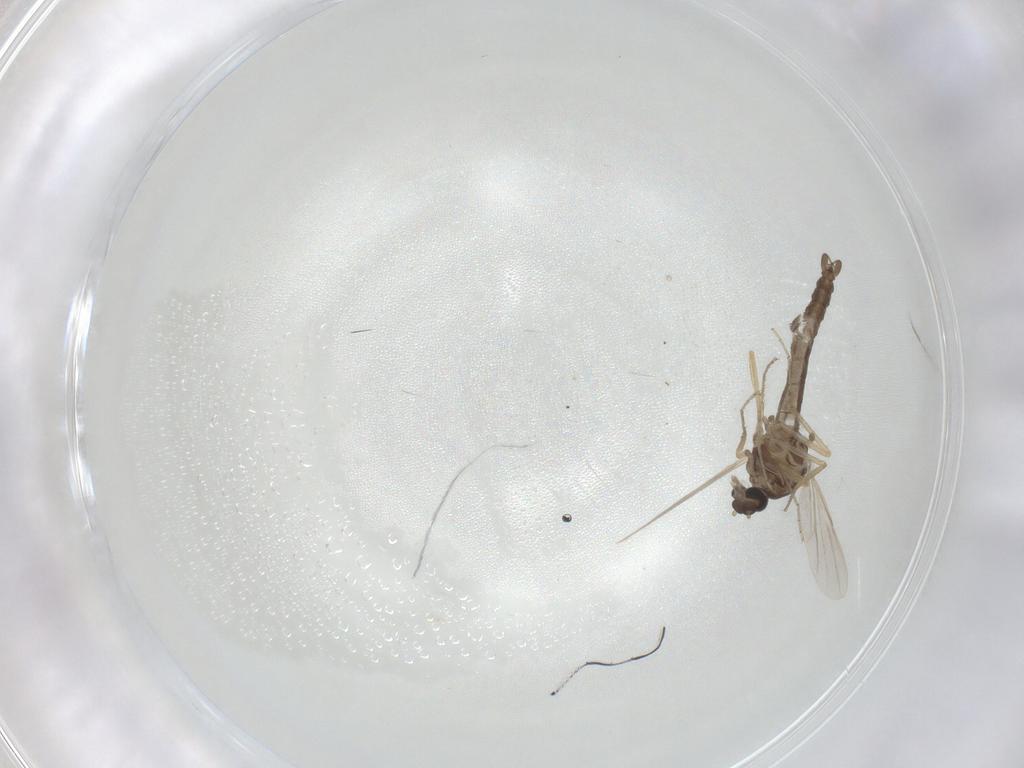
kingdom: Animalia
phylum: Arthropoda
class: Insecta
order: Diptera
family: Ceratopogonidae
